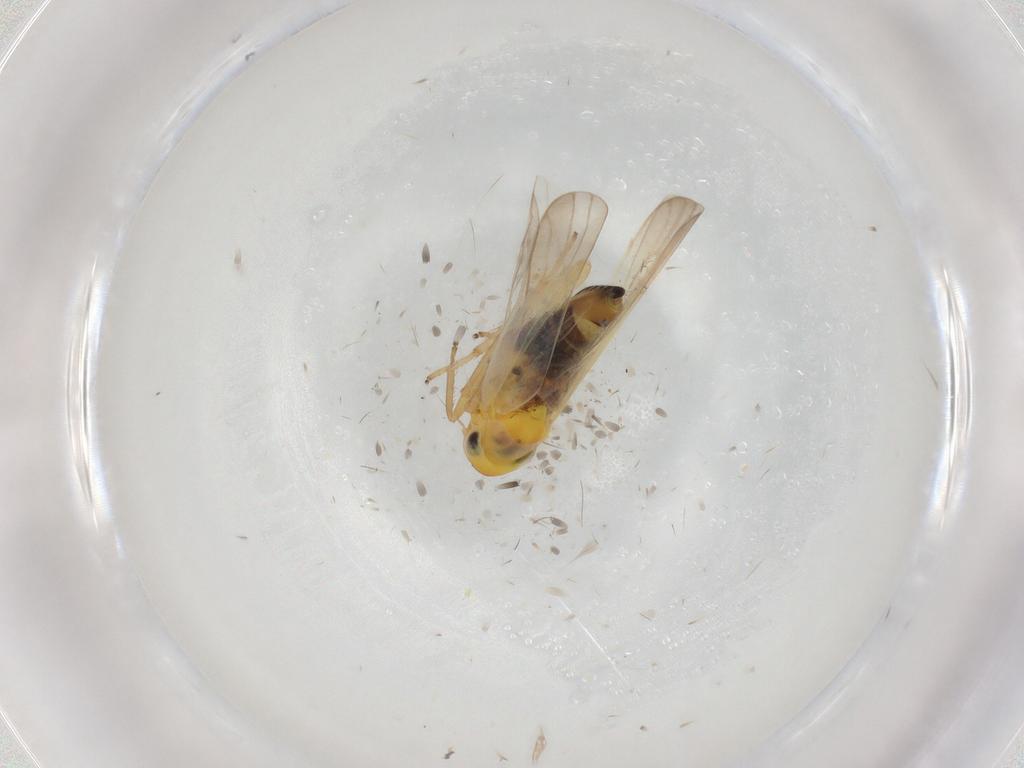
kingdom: Animalia
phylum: Arthropoda
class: Insecta
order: Hemiptera
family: Cicadellidae
